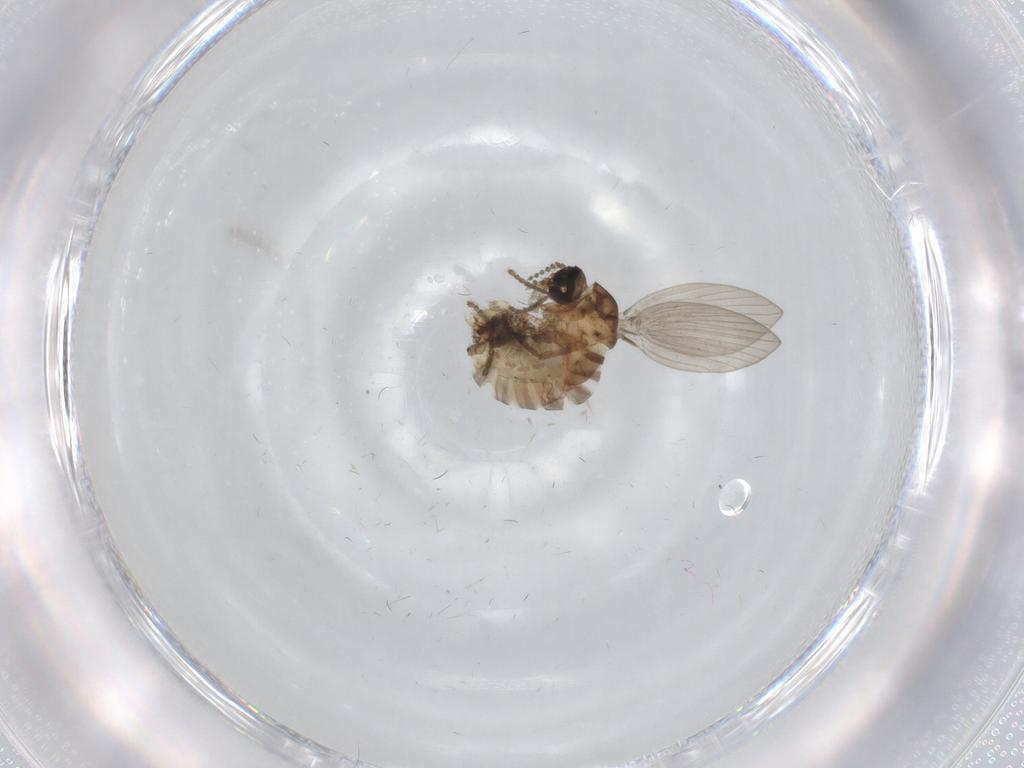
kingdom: Animalia
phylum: Arthropoda
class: Insecta
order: Diptera
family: Psychodidae
